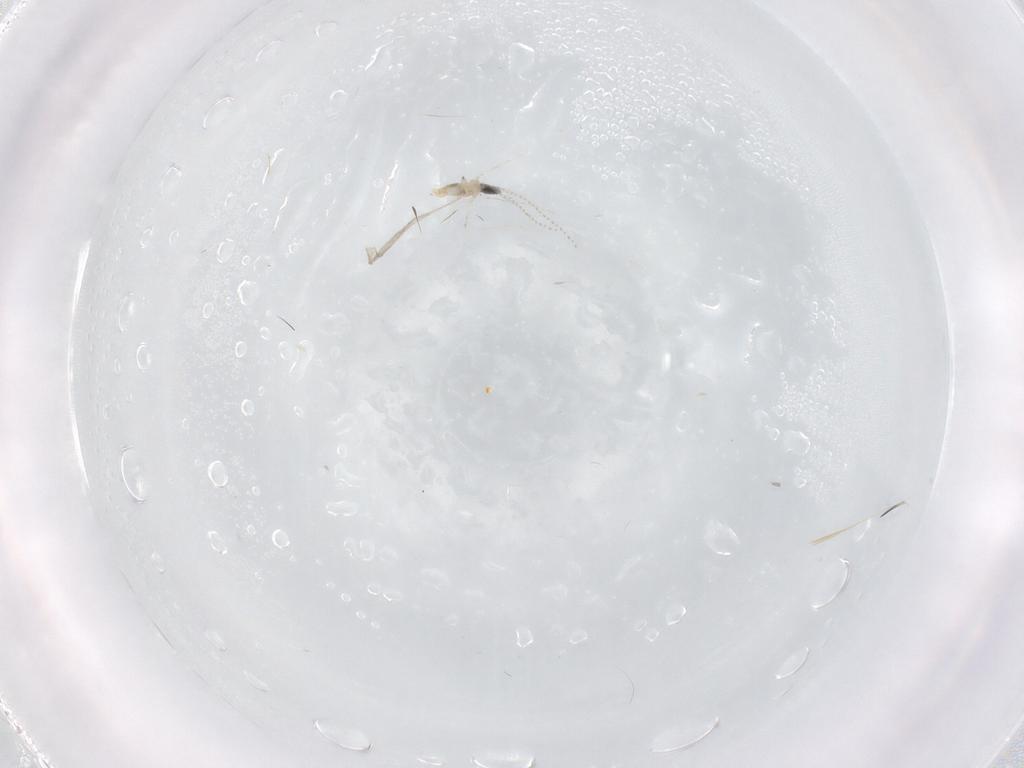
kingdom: Animalia
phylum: Arthropoda
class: Insecta
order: Diptera
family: Cecidomyiidae
